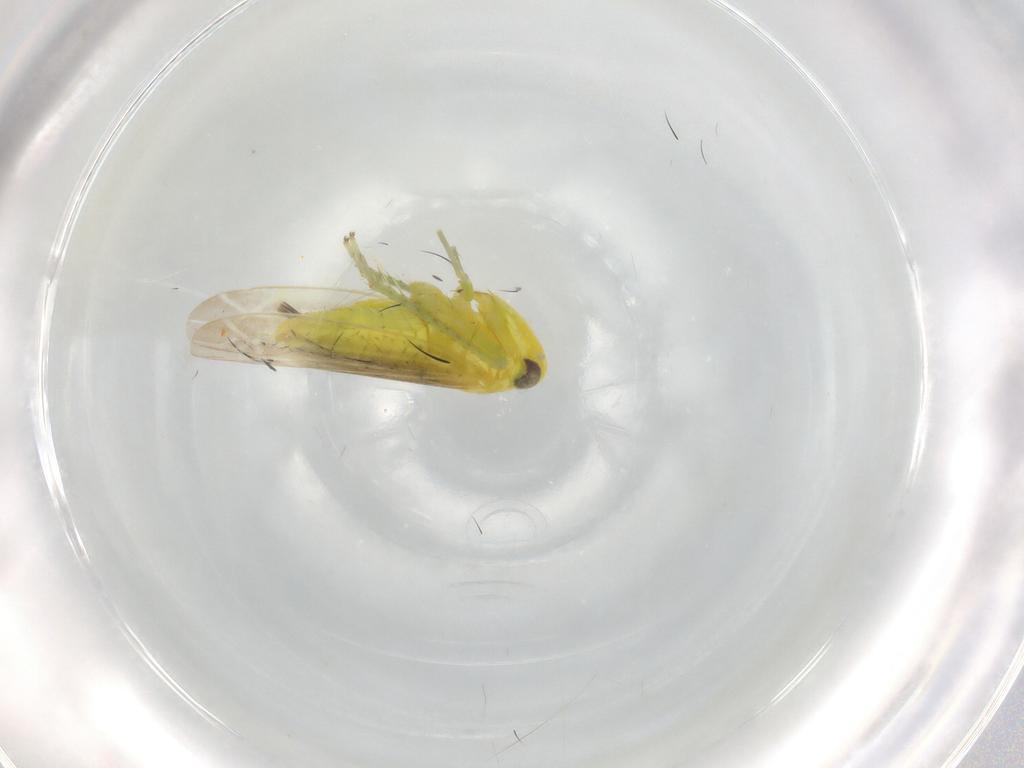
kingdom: Animalia
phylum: Arthropoda
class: Insecta
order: Hemiptera
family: Cicadellidae
